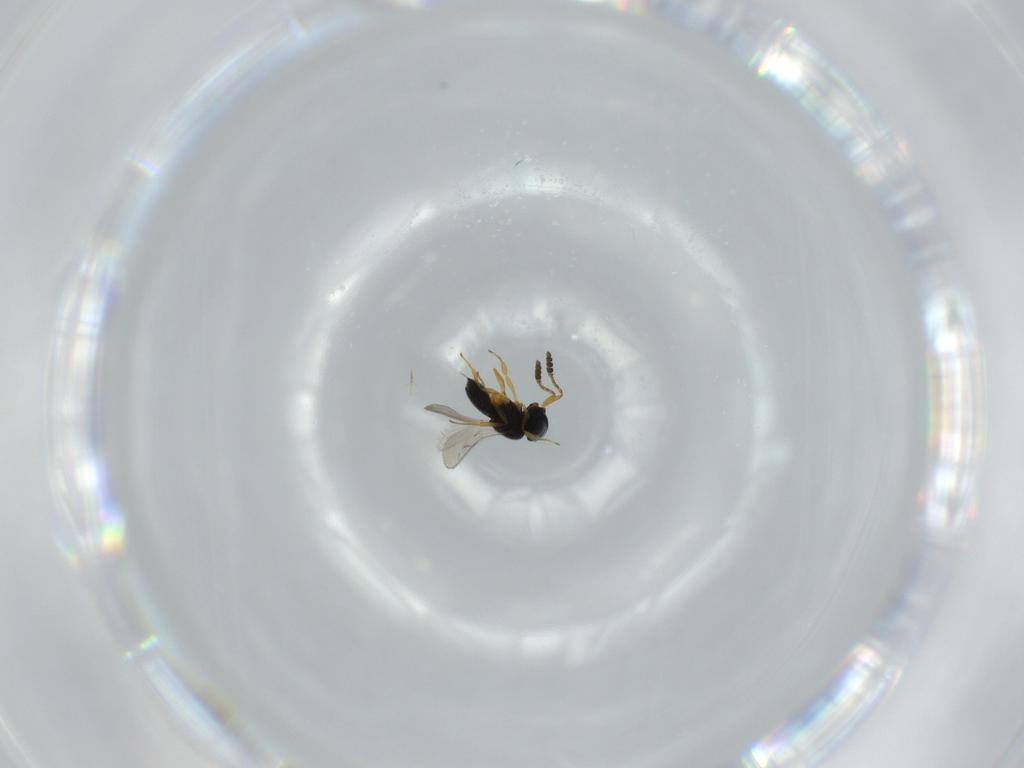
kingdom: Animalia
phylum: Arthropoda
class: Insecta
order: Hymenoptera
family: Scelionidae
